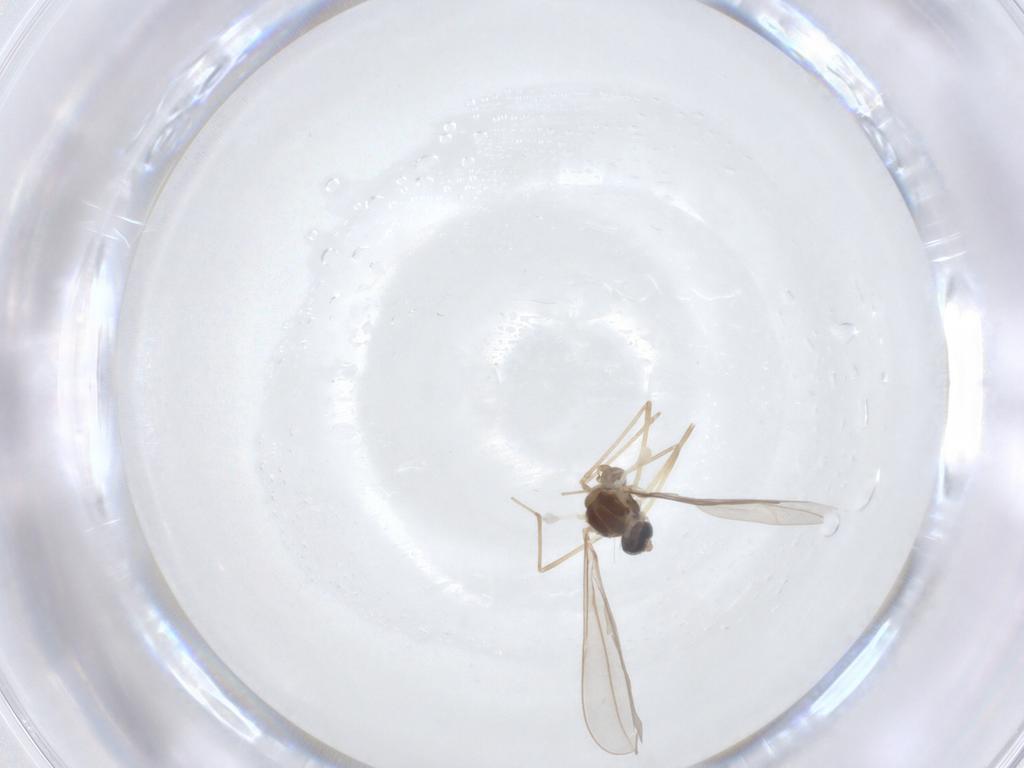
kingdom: Animalia
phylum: Arthropoda
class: Insecta
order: Diptera
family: Cecidomyiidae
